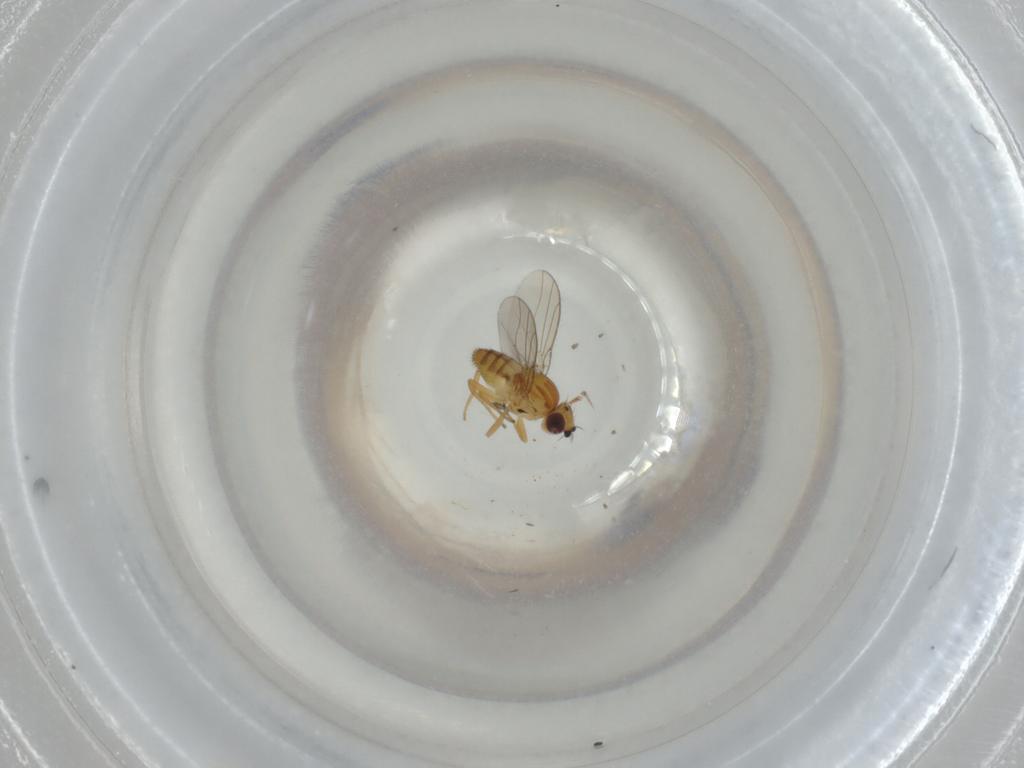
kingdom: Animalia
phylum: Arthropoda
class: Insecta
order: Diptera
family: Chloropidae
